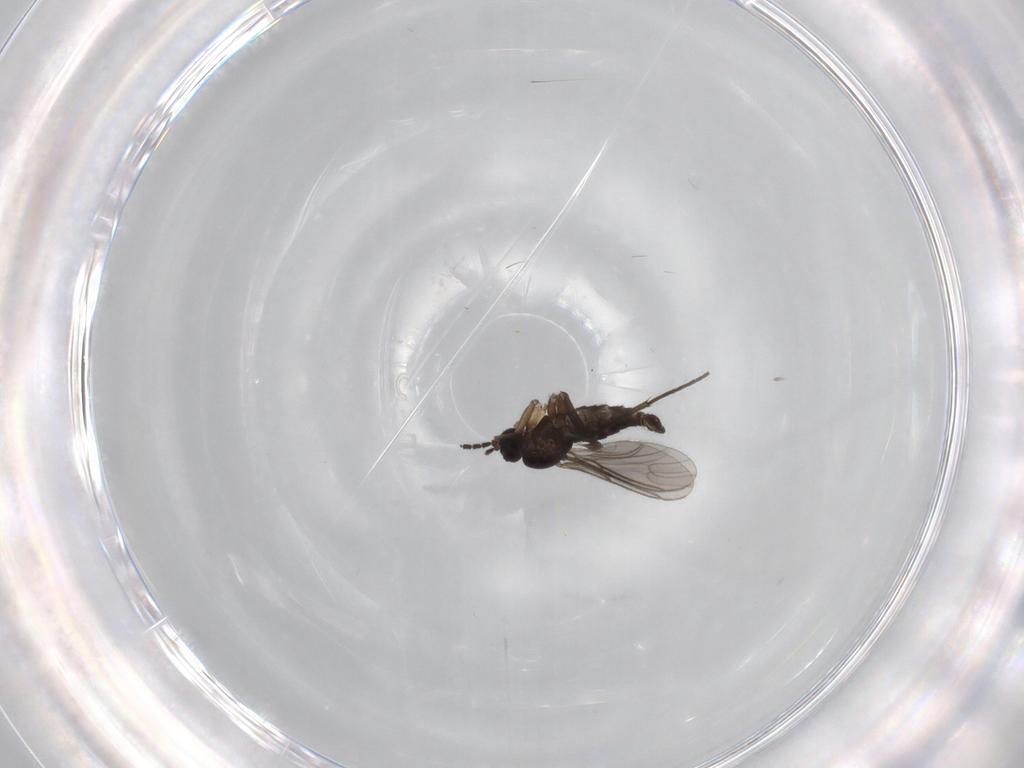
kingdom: Animalia
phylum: Arthropoda
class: Insecta
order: Diptera
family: Sciaridae
